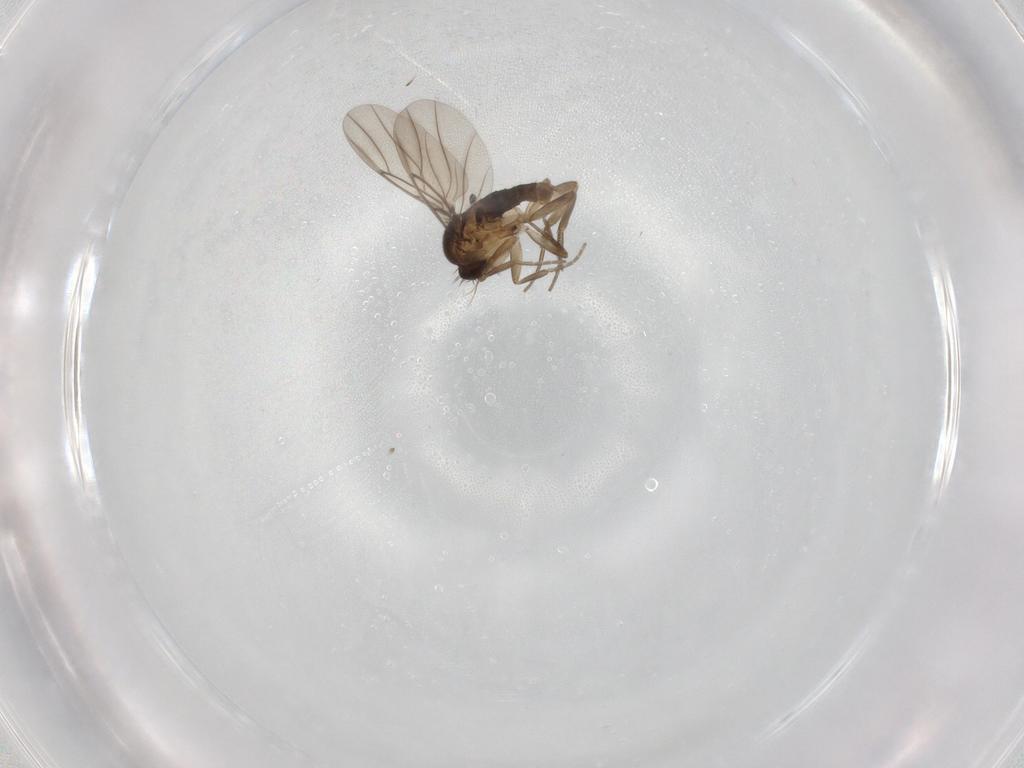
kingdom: Animalia
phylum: Arthropoda
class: Insecta
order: Diptera
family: Phoridae
